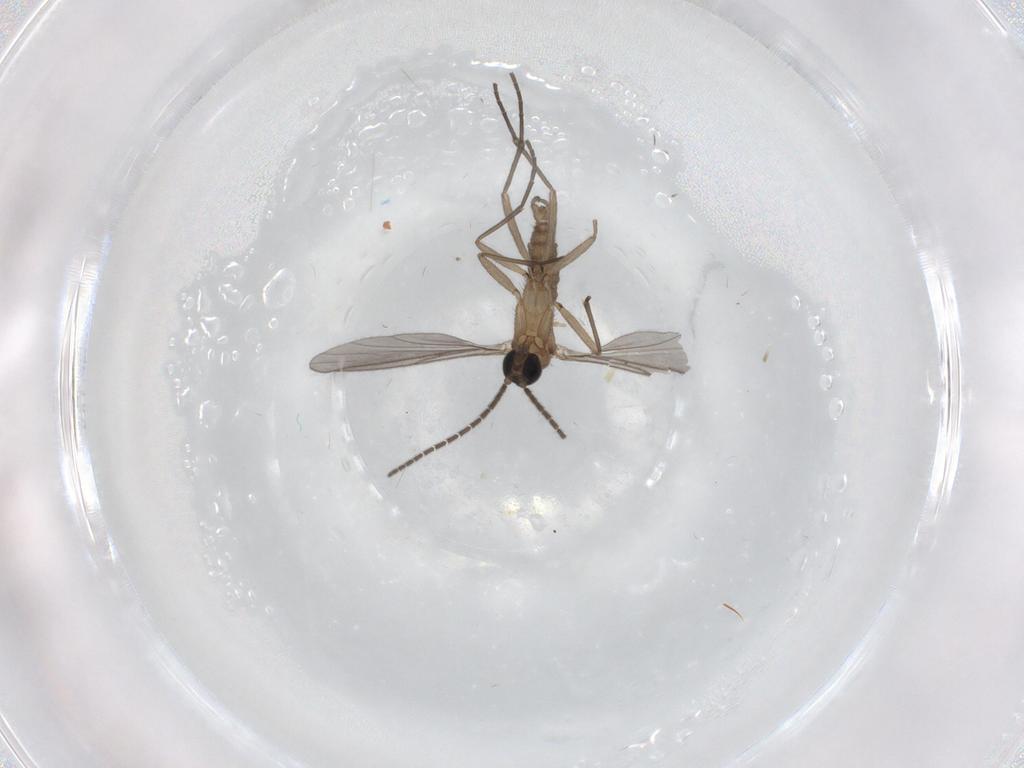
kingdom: Animalia
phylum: Arthropoda
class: Insecta
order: Diptera
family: Sciaridae
